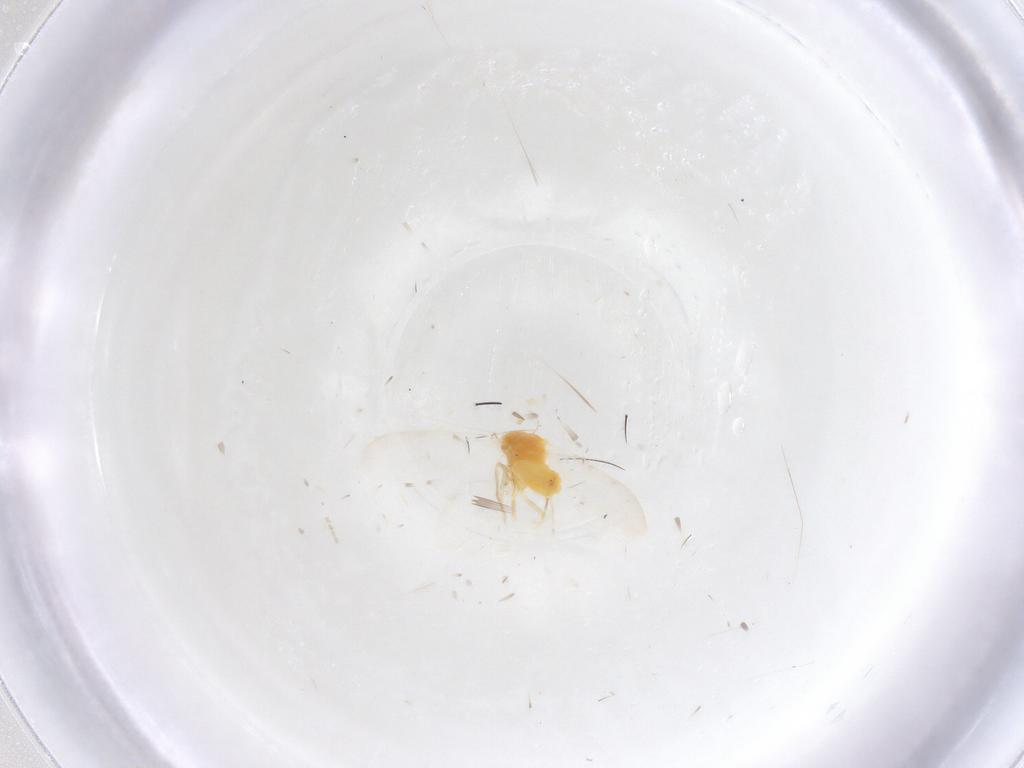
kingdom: Animalia
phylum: Arthropoda
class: Insecta
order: Hemiptera
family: Aleyrodidae
